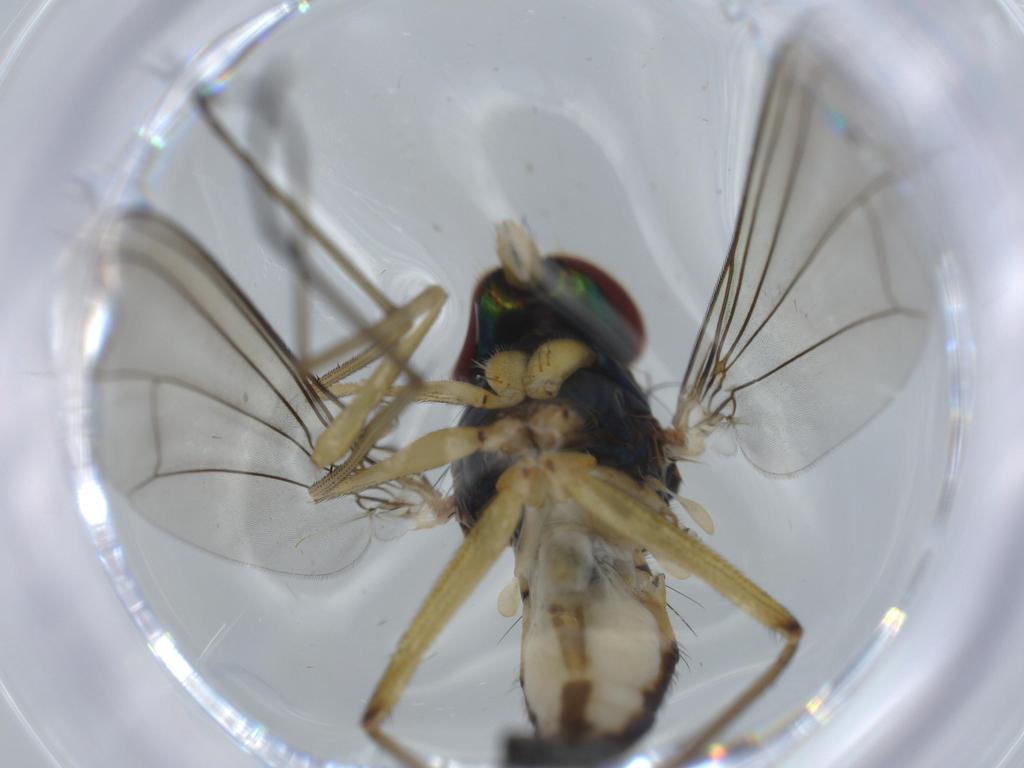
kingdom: Animalia
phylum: Arthropoda
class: Insecta
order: Diptera
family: Dolichopodidae
